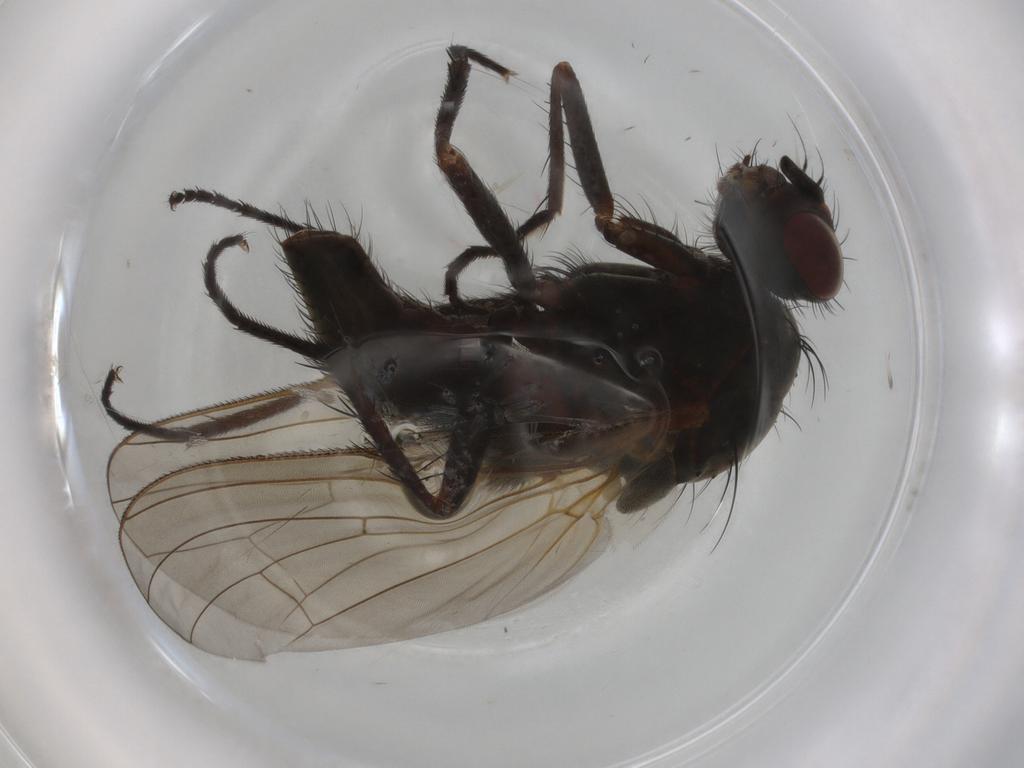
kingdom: Animalia
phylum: Arthropoda
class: Insecta
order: Diptera
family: Anthomyiidae
